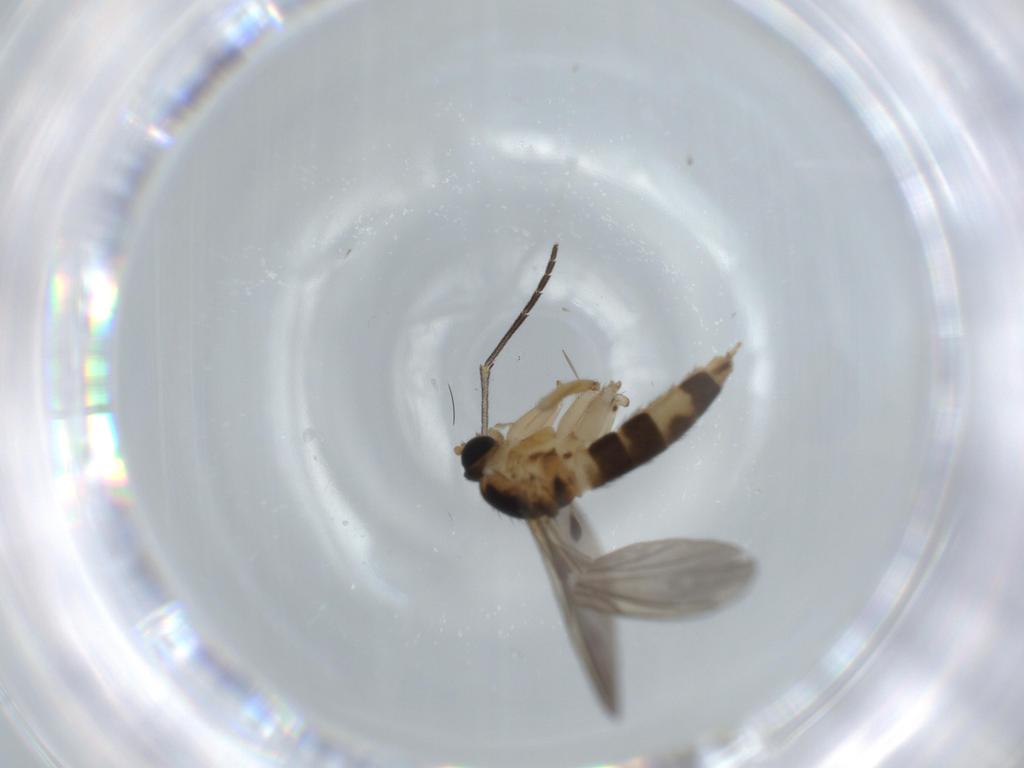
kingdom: Animalia
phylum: Arthropoda
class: Insecta
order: Diptera
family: Sciaridae
